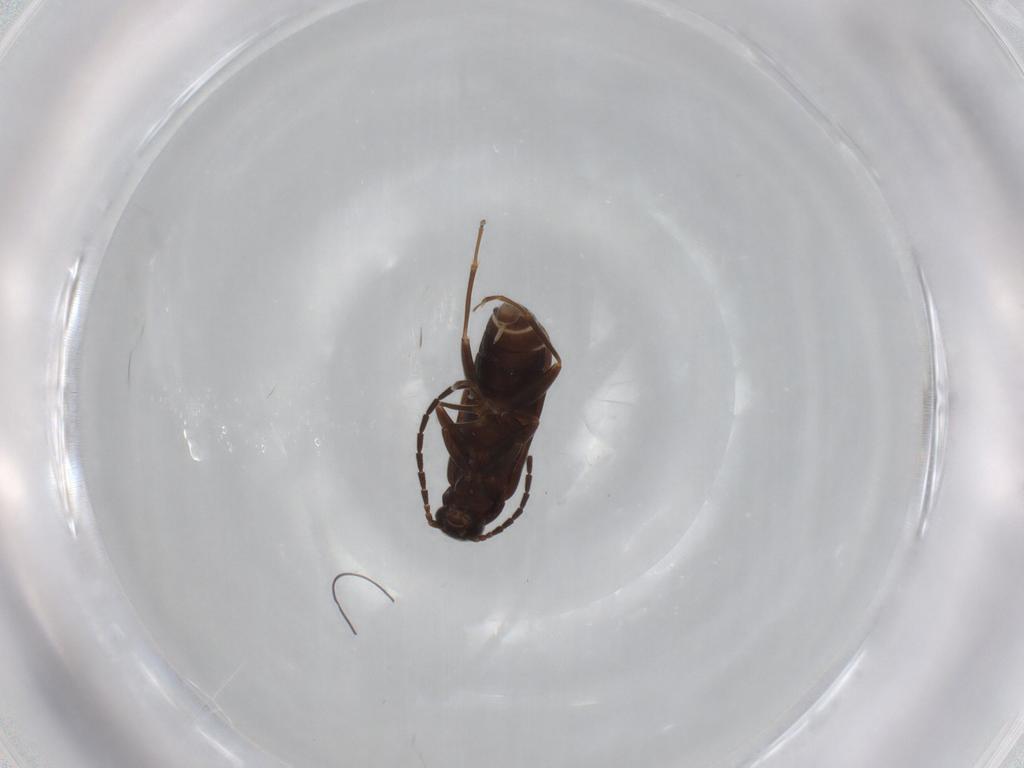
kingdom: Animalia
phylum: Arthropoda
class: Insecta
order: Coleoptera
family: Scraptiidae
